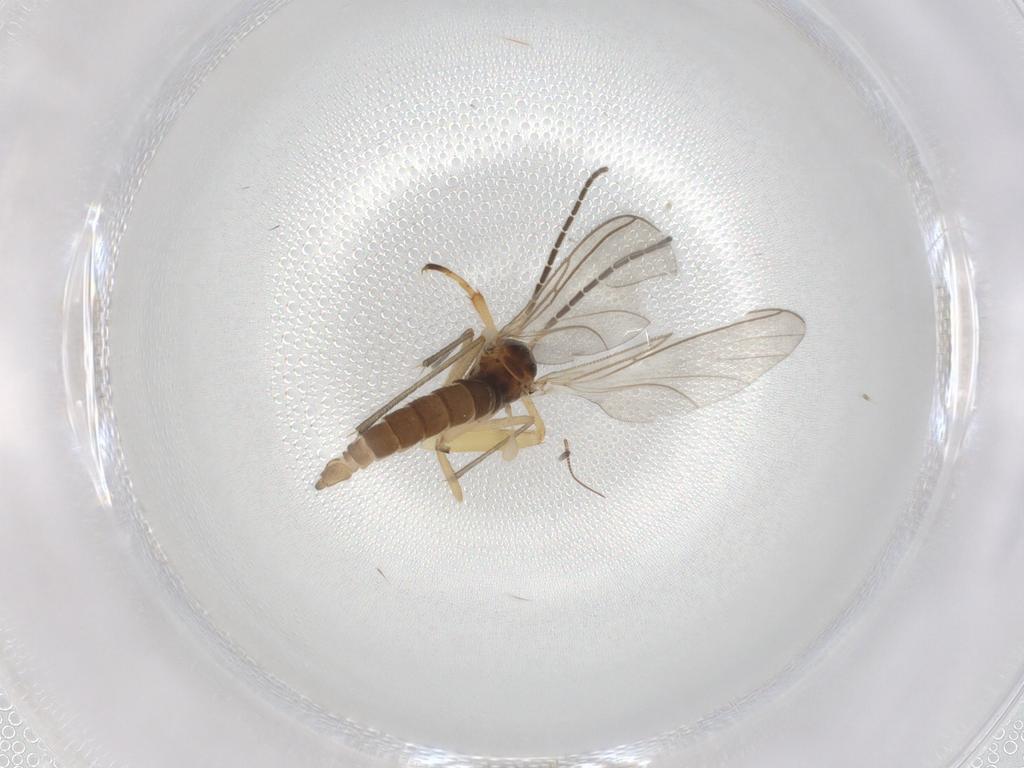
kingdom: Animalia
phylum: Arthropoda
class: Insecta
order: Diptera
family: Sciaridae
